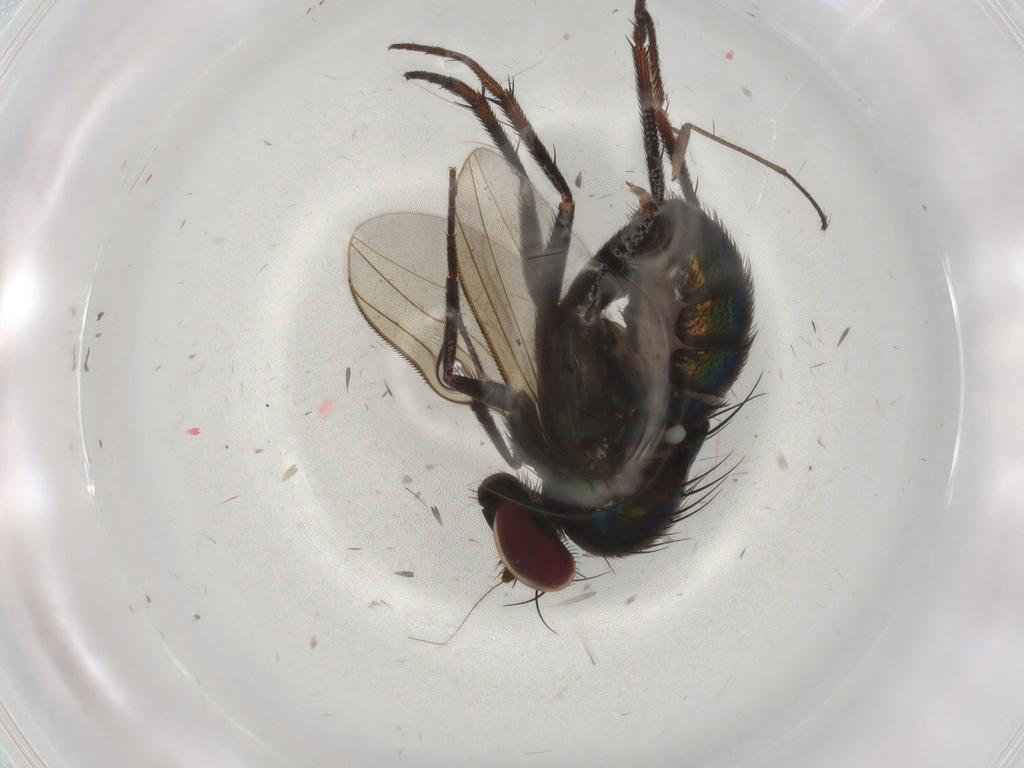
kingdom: Animalia
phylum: Arthropoda
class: Insecta
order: Diptera
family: Dolichopodidae
